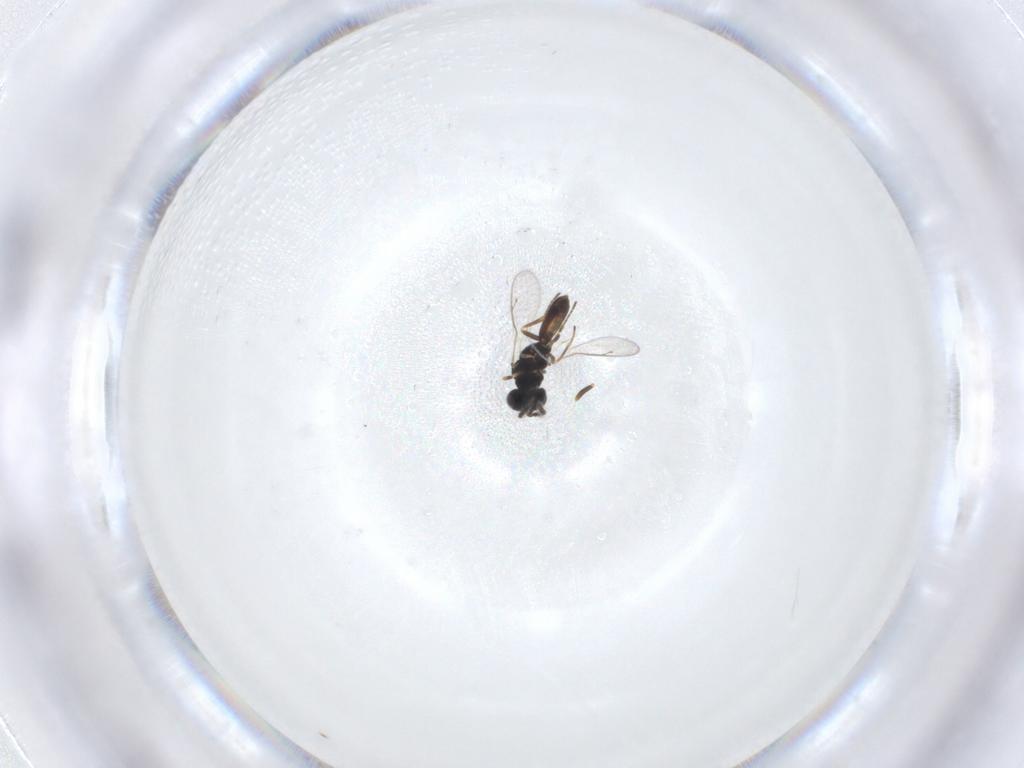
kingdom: Animalia
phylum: Arthropoda
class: Insecta
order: Hymenoptera
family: Pteromalidae
